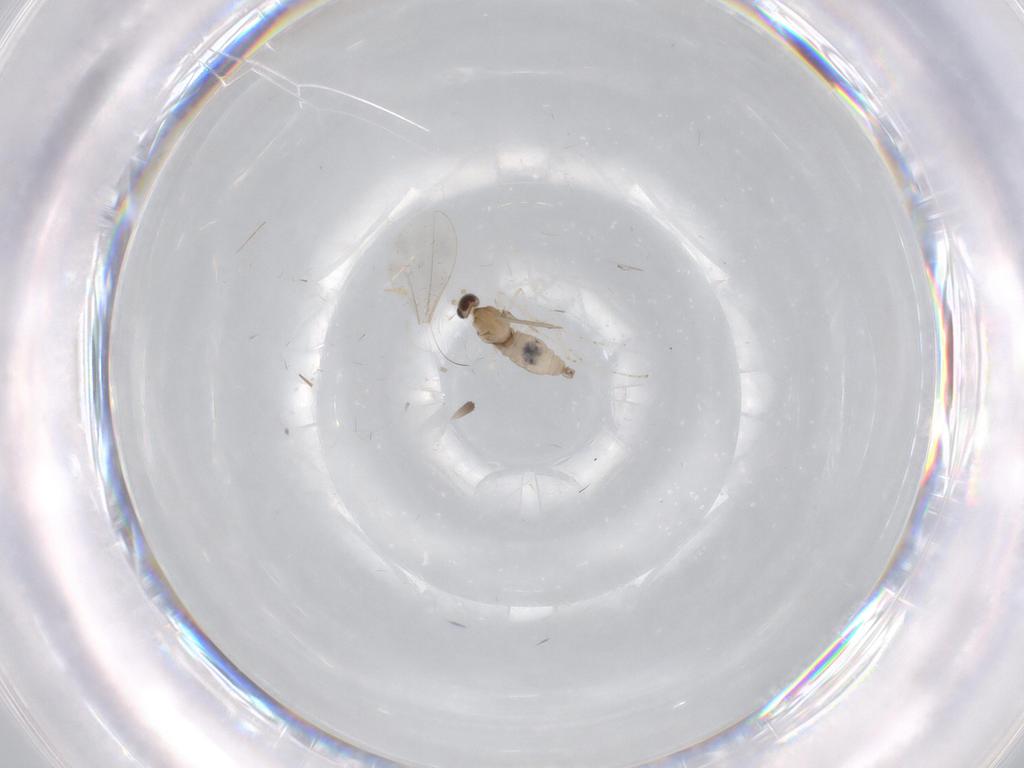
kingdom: Animalia
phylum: Arthropoda
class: Insecta
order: Diptera
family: Cecidomyiidae
